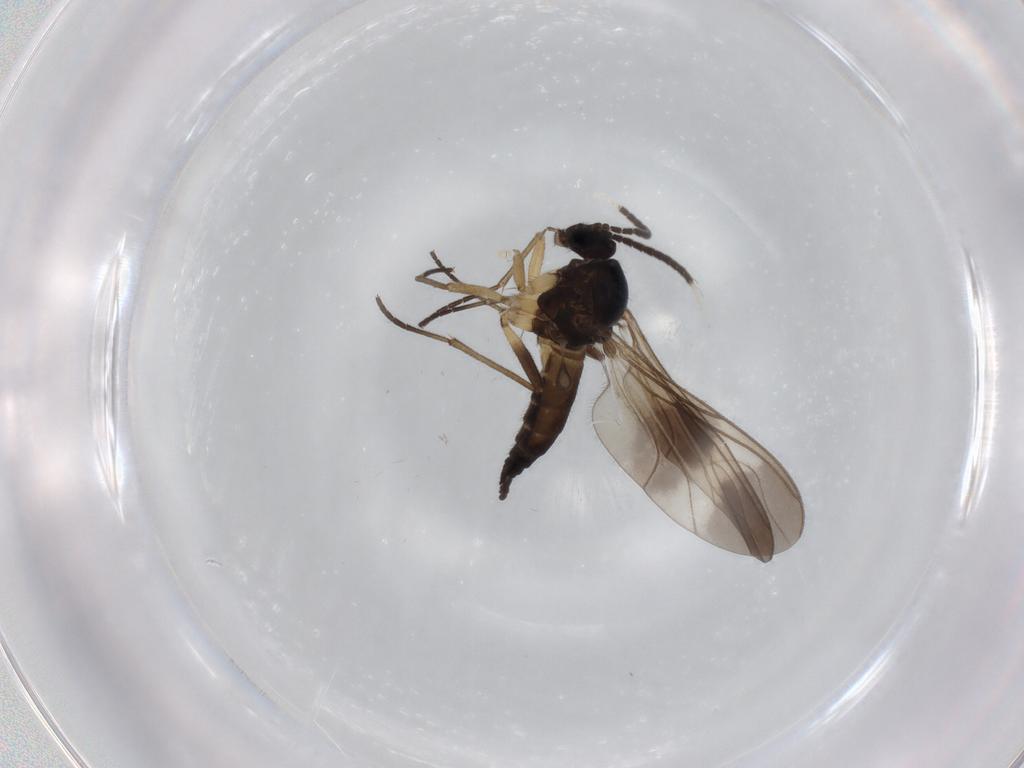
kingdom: Animalia
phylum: Arthropoda
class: Insecta
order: Diptera
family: Sciaridae
